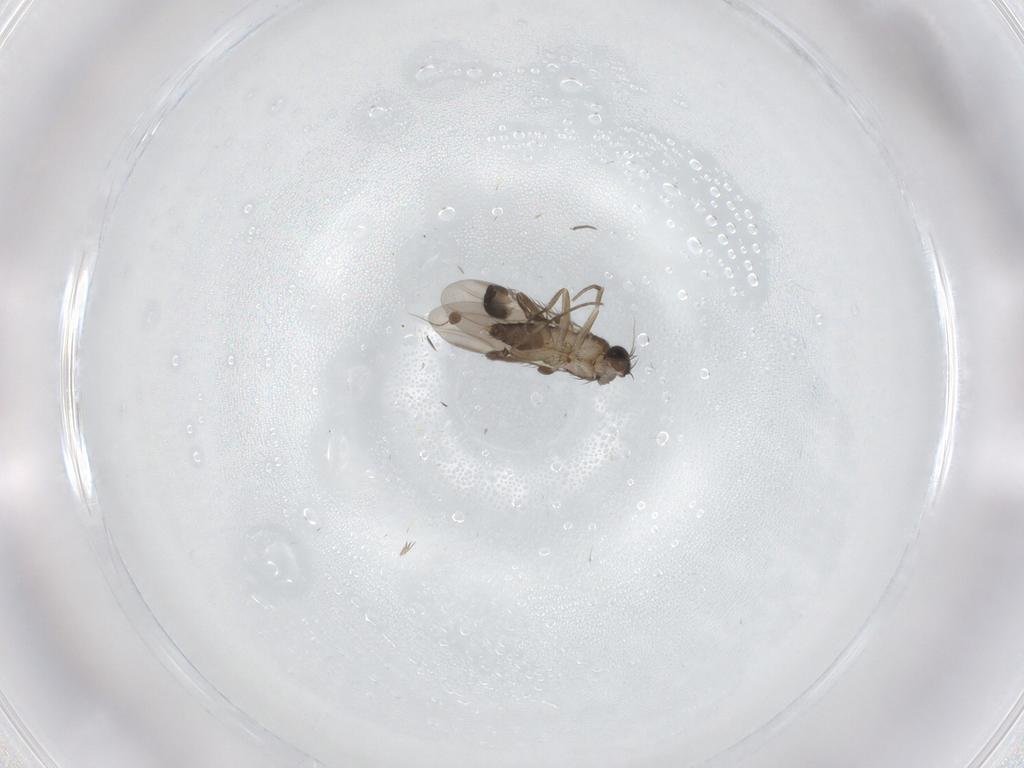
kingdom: Animalia
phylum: Arthropoda
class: Insecta
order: Diptera
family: Phoridae
